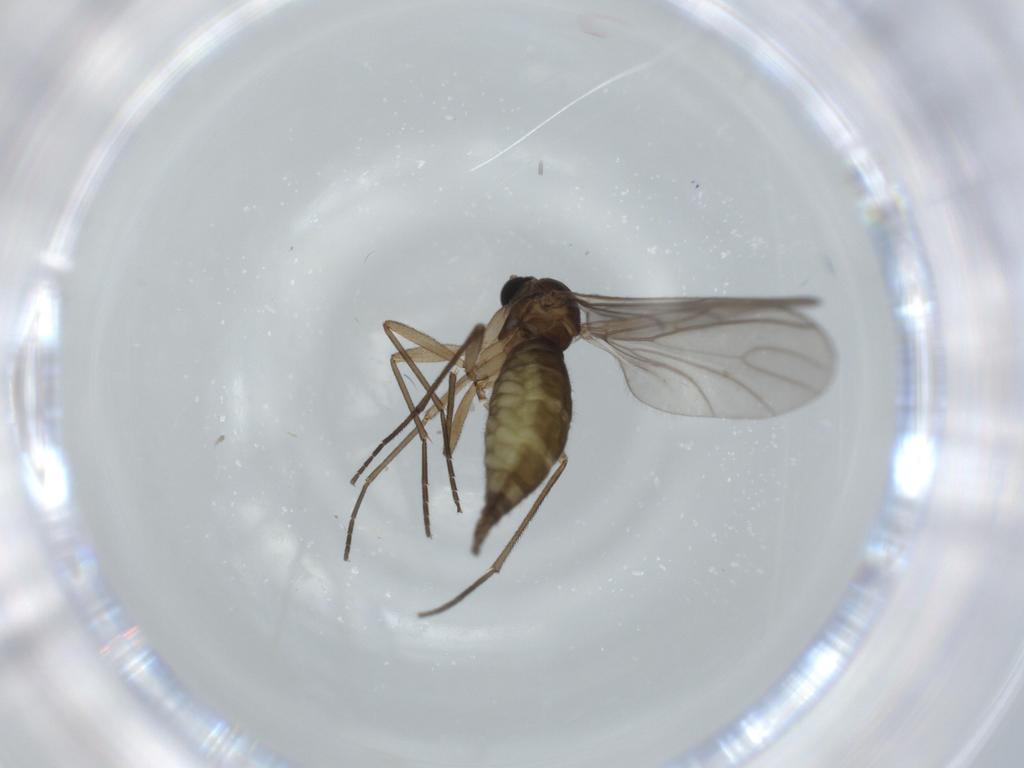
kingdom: Animalia
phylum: Arthropoda
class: Insecta
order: Diptera
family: Sciaridae
